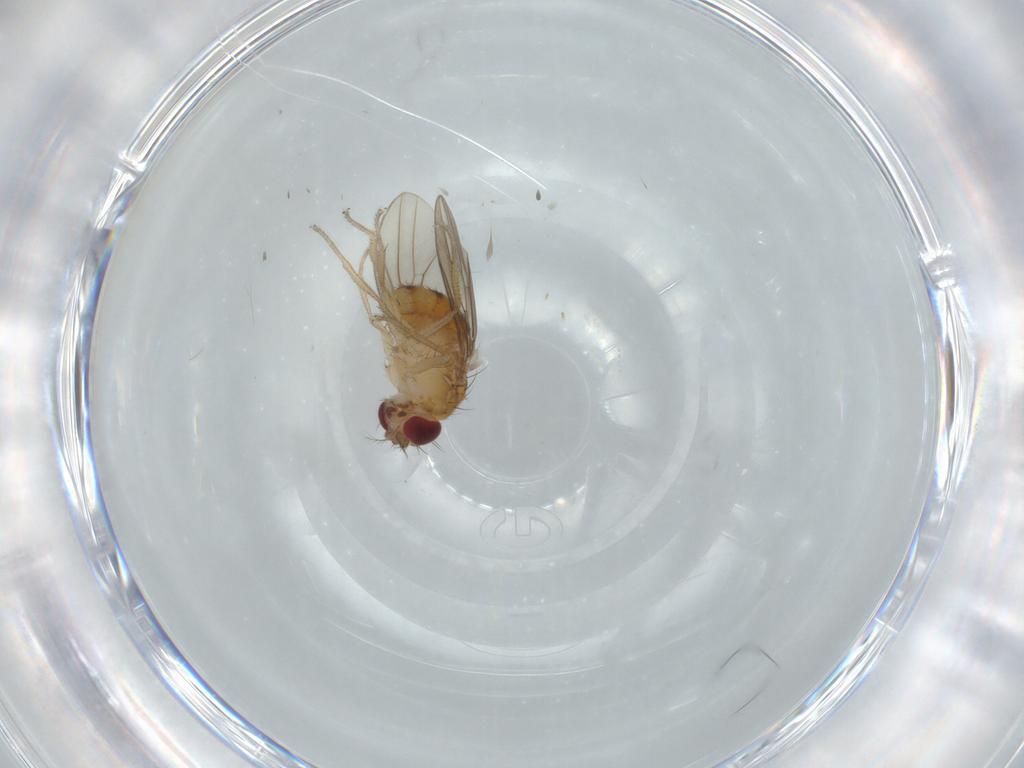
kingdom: Animalia
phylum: Arthropoda
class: Insecta
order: Diptera
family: Drosophilidae
